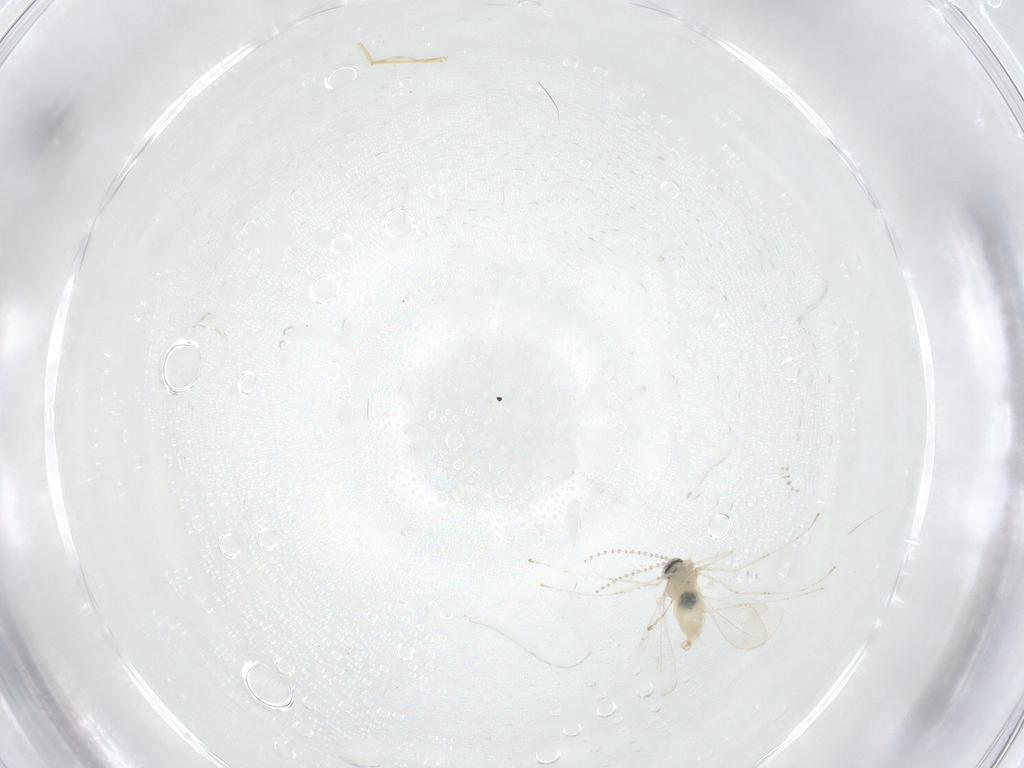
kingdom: Animalia
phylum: Arthropoda
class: Insecta
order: Diptera
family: Cecidomyiidae
